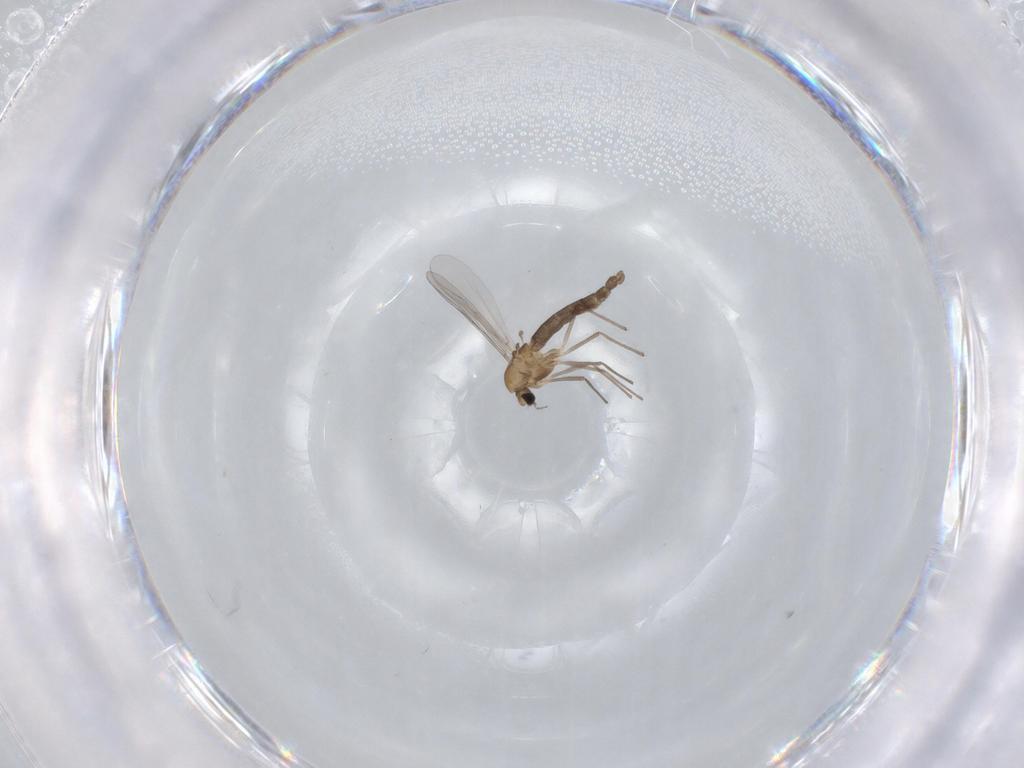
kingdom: Animalia
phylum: Arthropoda
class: Insecta
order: Diptera
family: Chironomidae
